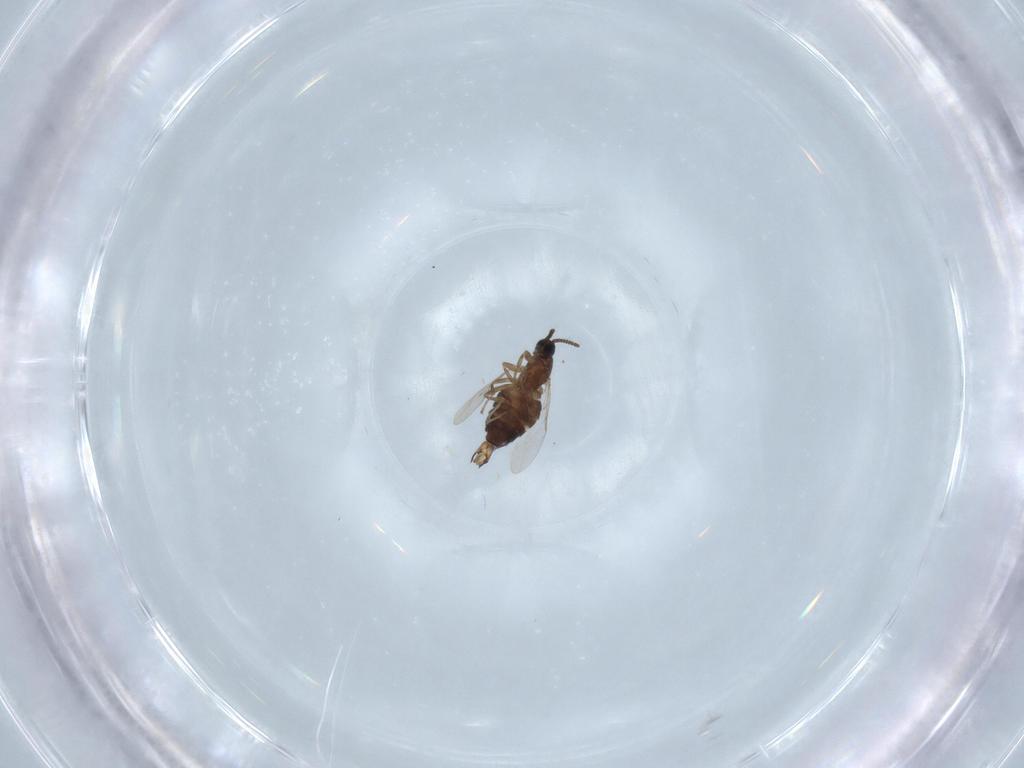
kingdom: Animalia
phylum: Arthropoda
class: Insecta
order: Diptera
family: Scatopsidae
